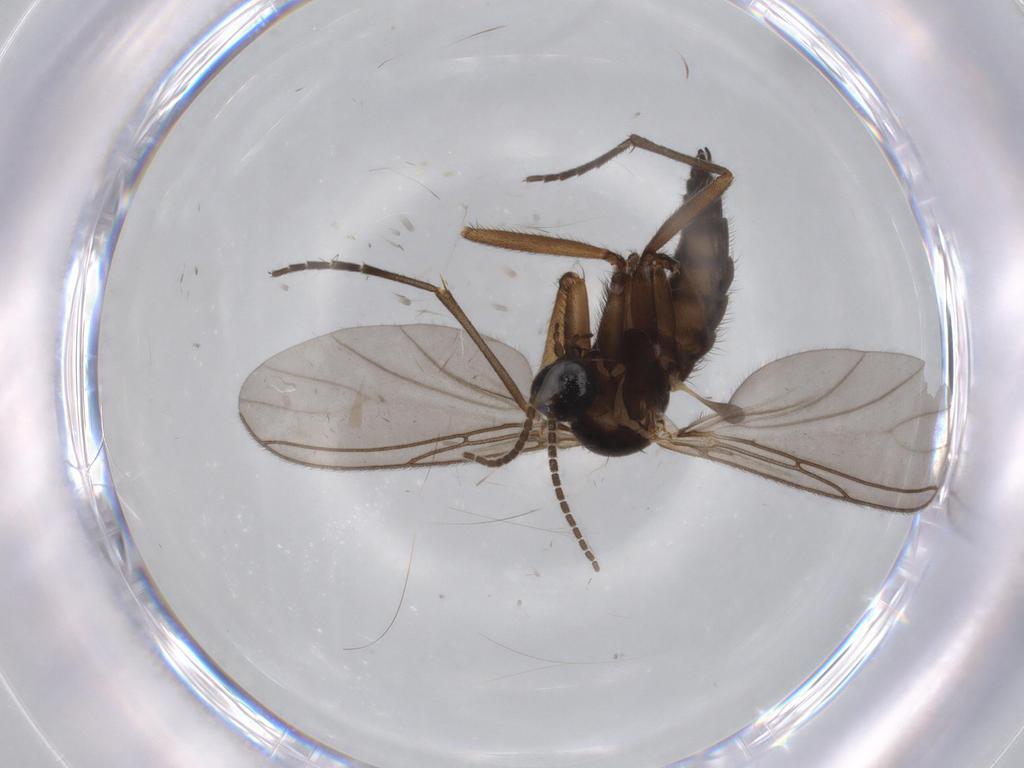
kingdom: Animalia
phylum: Arthropoda
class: Insecta
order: Diptera
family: Sciaridae
